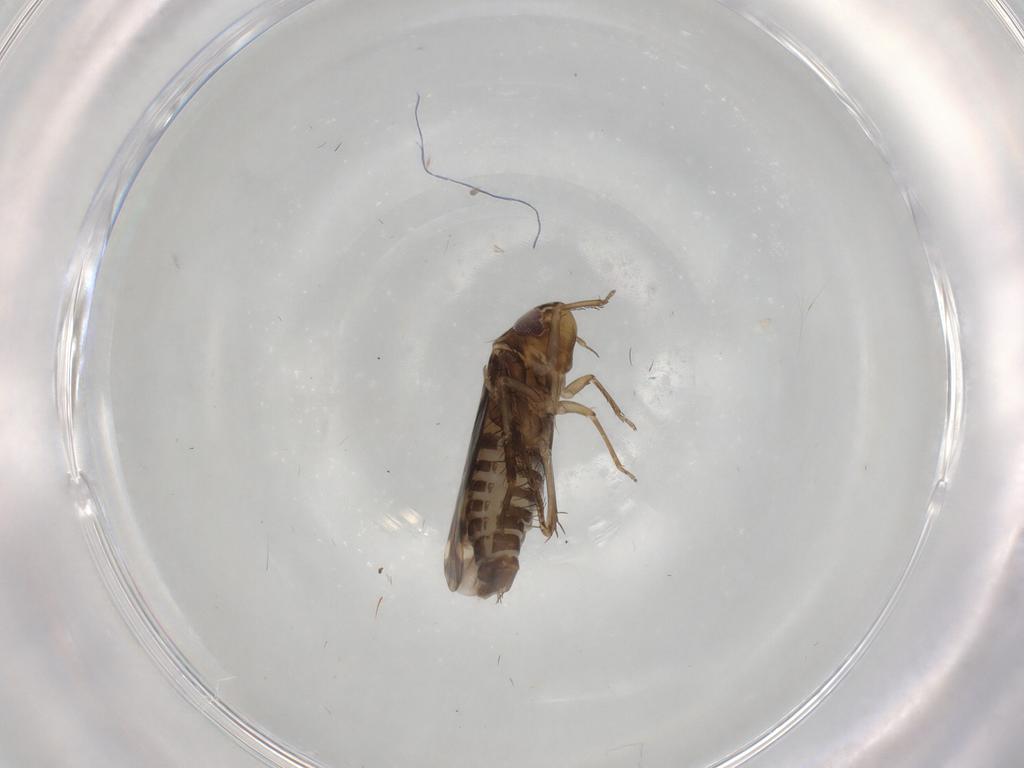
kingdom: Animalia
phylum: Arthropoda
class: Insecta
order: Hemiptera
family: Cicadellidae
